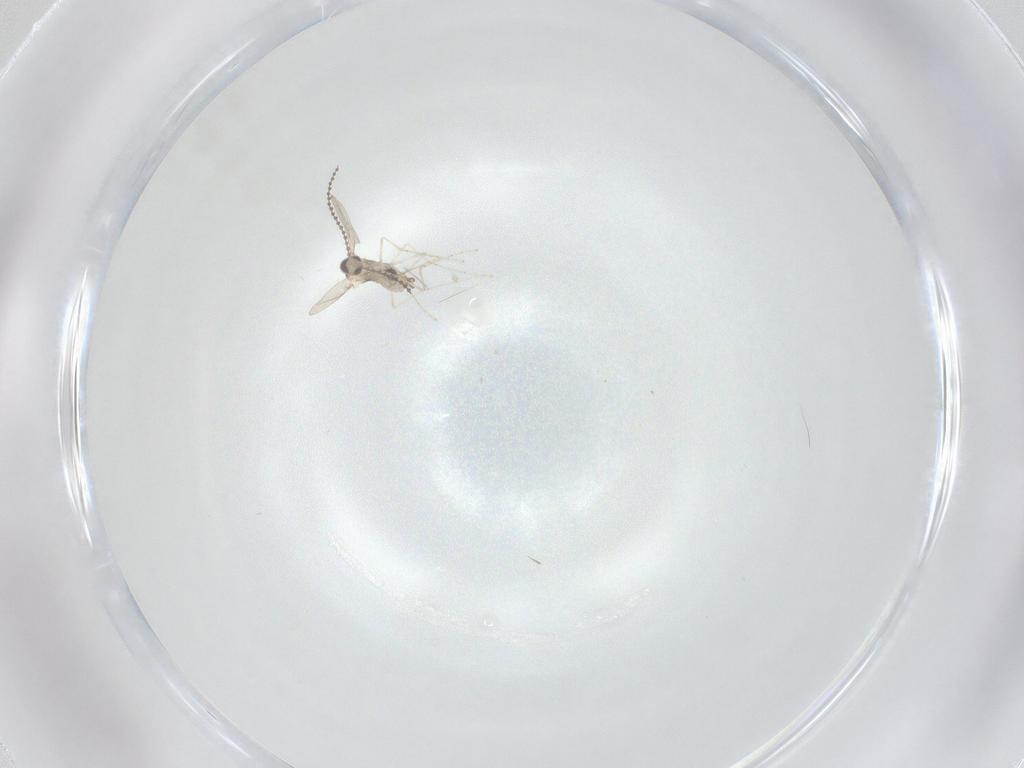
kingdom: Animalia
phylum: Arthropoda
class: Insecta
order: Diptera
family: Cecidomyiidae
